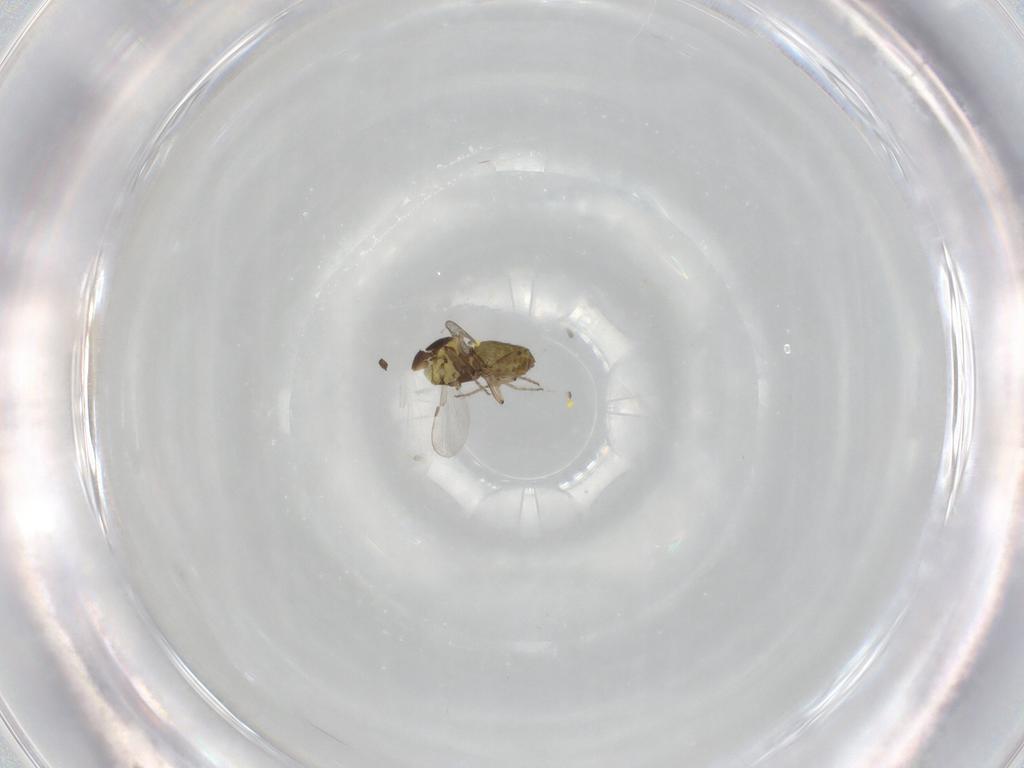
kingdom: Animalia
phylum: Arthropoda
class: Insecta
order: Diptera
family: Ceratopogonidae
